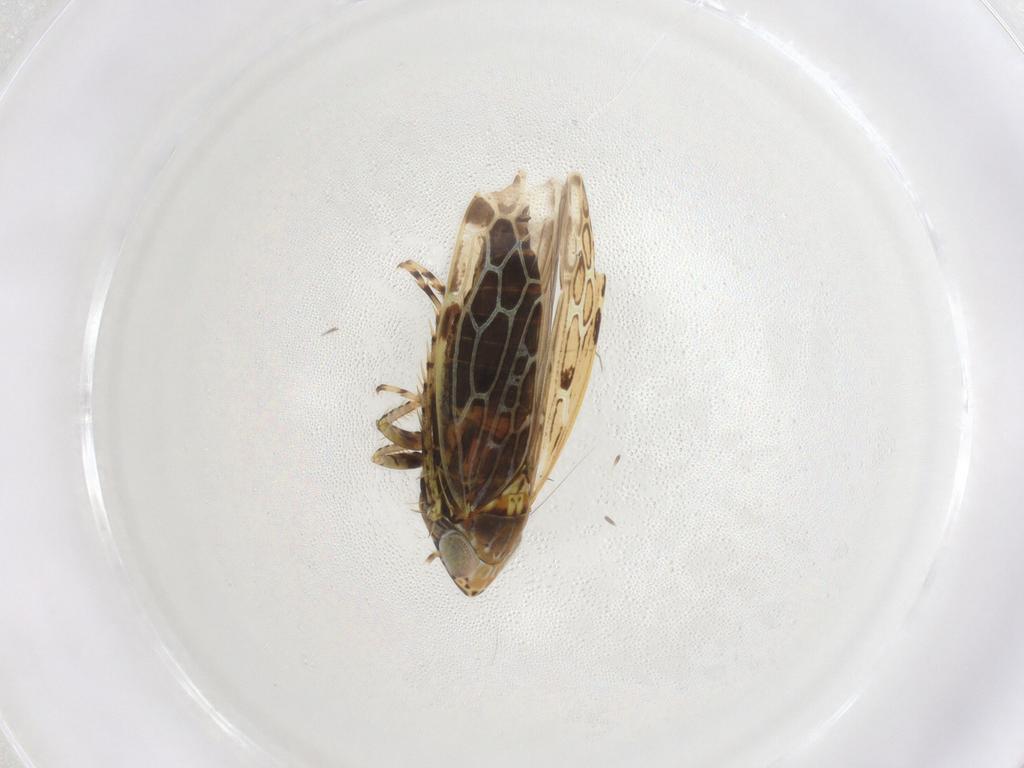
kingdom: Animalia
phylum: Arthropoda
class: Insecta
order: Hemiptera
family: Cicadellidae
